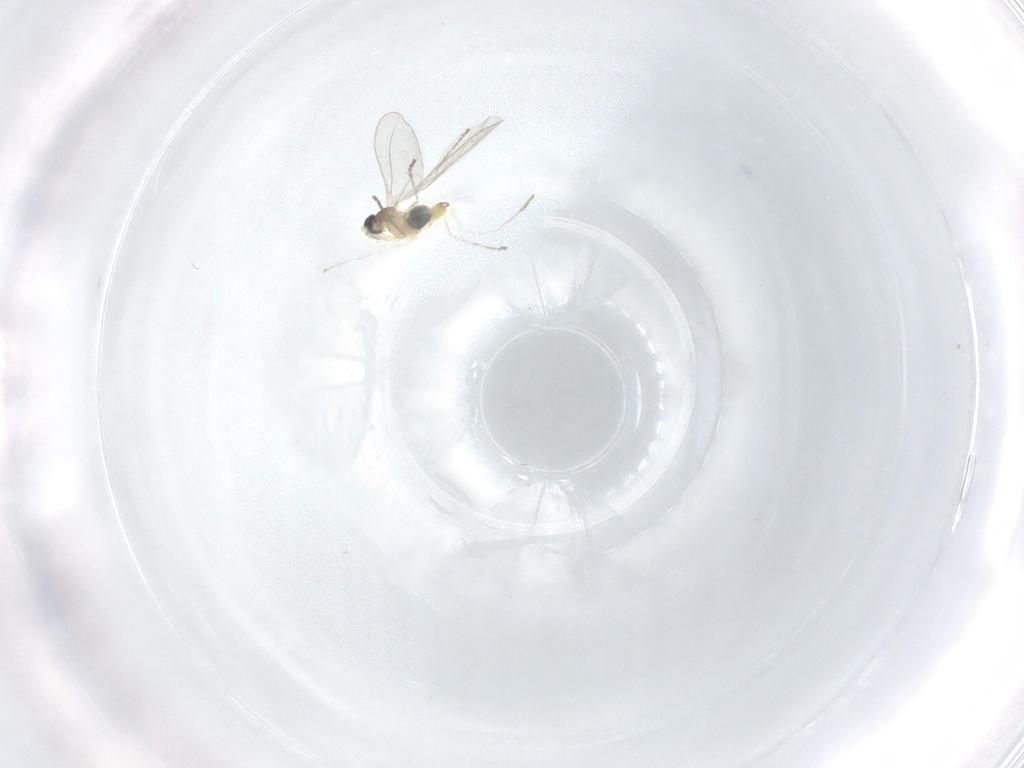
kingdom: Animalia
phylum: Arthropoda
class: Insecta
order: Diptera
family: Cecidomyiidae
